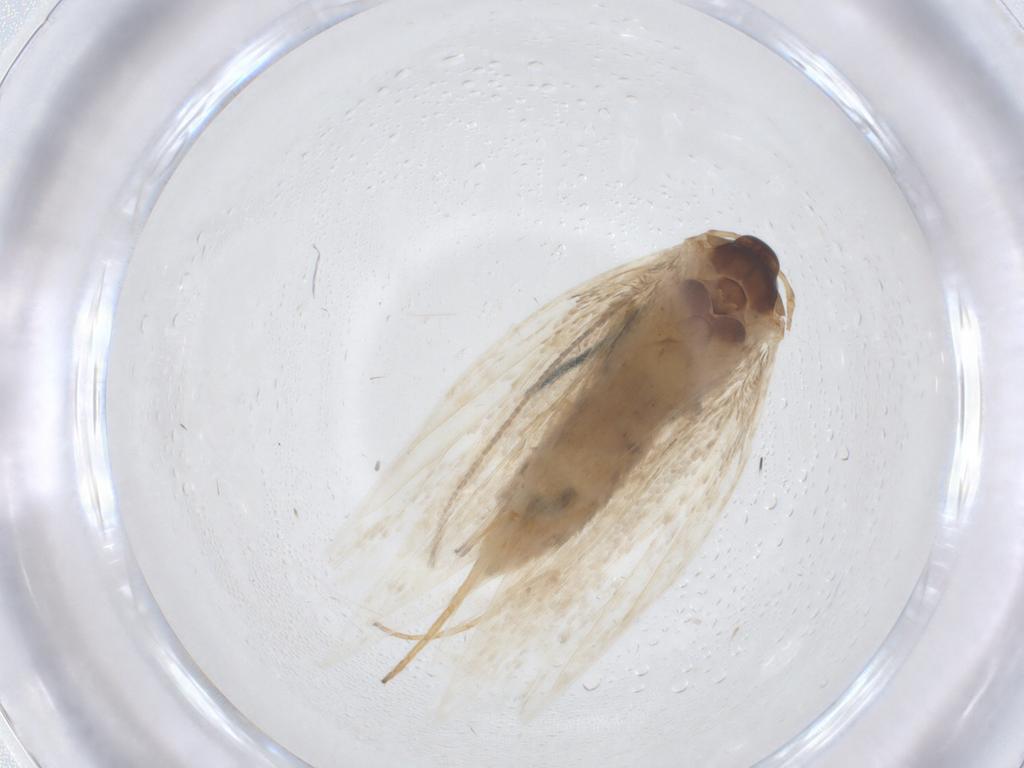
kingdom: Animalia
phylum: Arthropoda
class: Insecta
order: Lepidoptera
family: Erebidae
